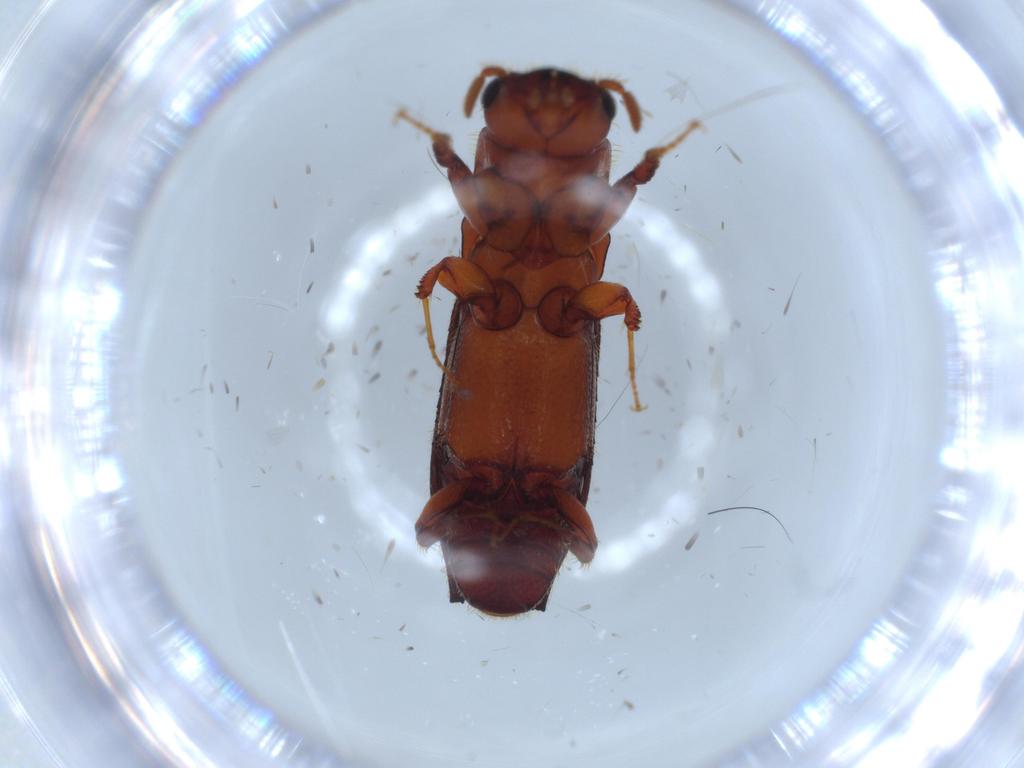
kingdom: Animalia
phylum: Arthropoda
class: Insecta
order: Coleoptera
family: Curculionidae
